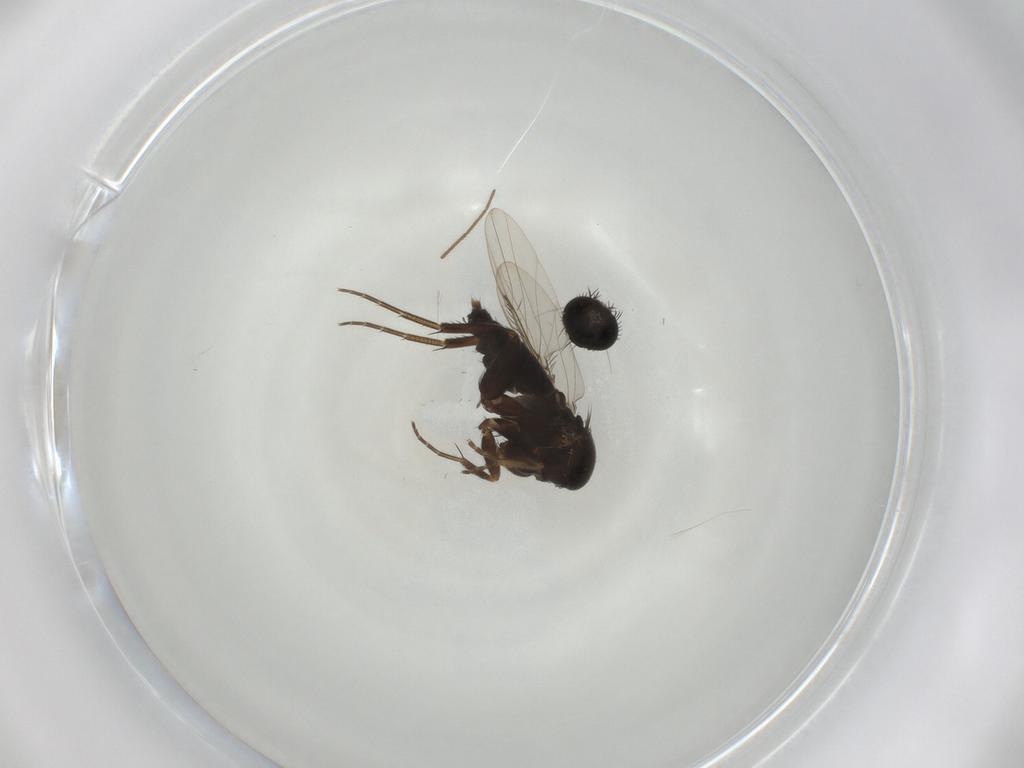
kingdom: Animalia
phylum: Arthropoda
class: Insecta
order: Diptera
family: Phoridae
